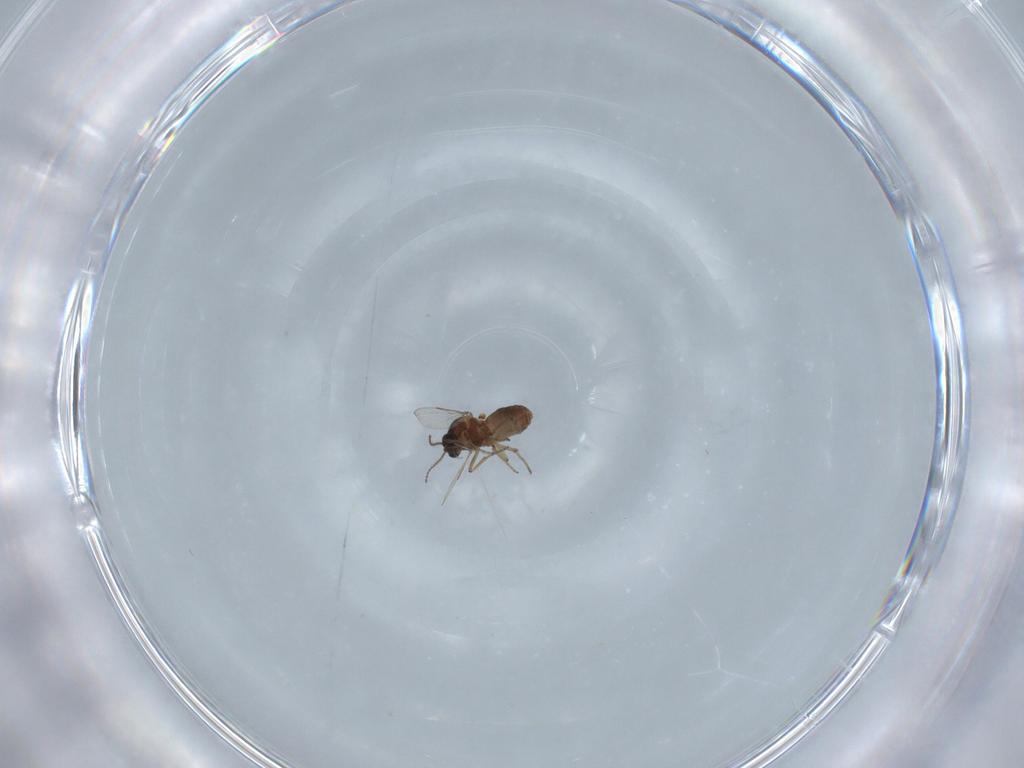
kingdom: Animalia
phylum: Arthropoda
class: Insecta
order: Diptera
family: Ceratopogonidae
